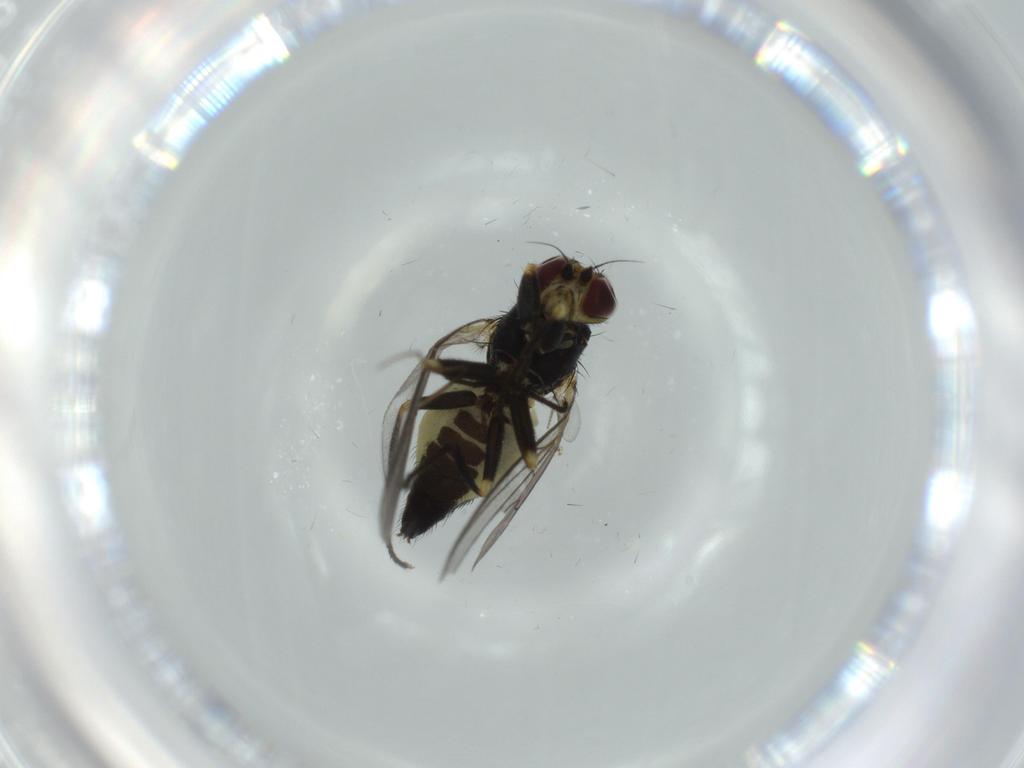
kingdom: Animalia
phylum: Arthropoda
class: Insecta
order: Diptera
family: Chironomidae
